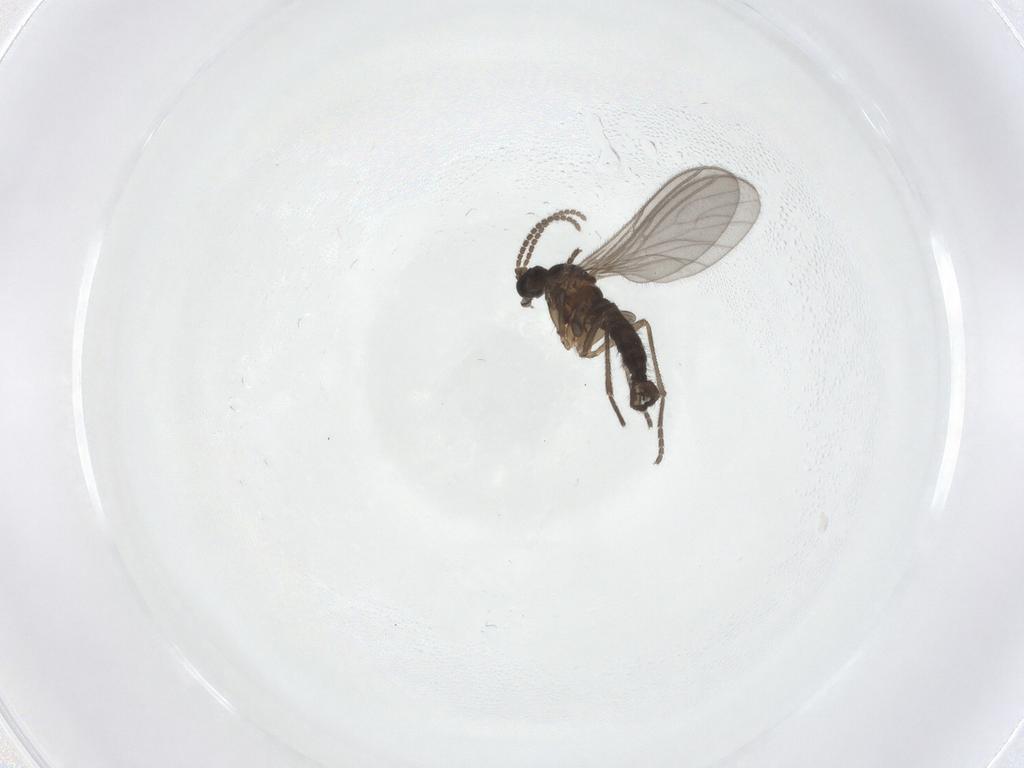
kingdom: Animalia
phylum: Arthropoda
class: Insecta
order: Diptera
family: Sciaridae
